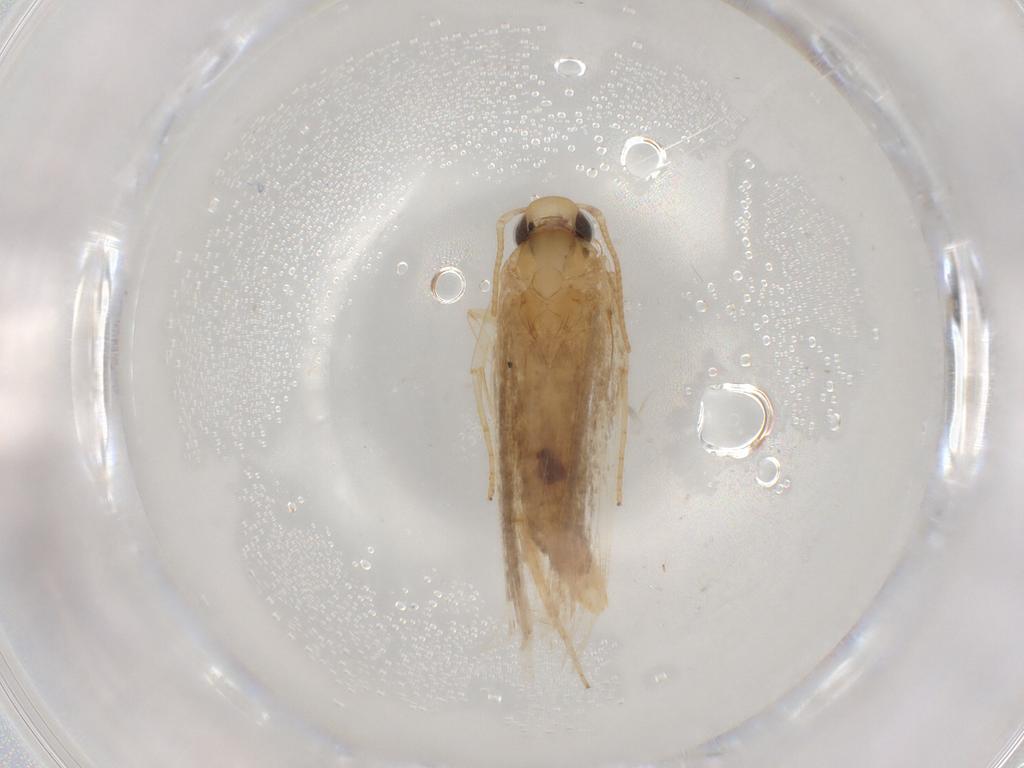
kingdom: Animalia
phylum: Arthropoda
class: Insecta
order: Lepidoptera
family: Gelechiidae
